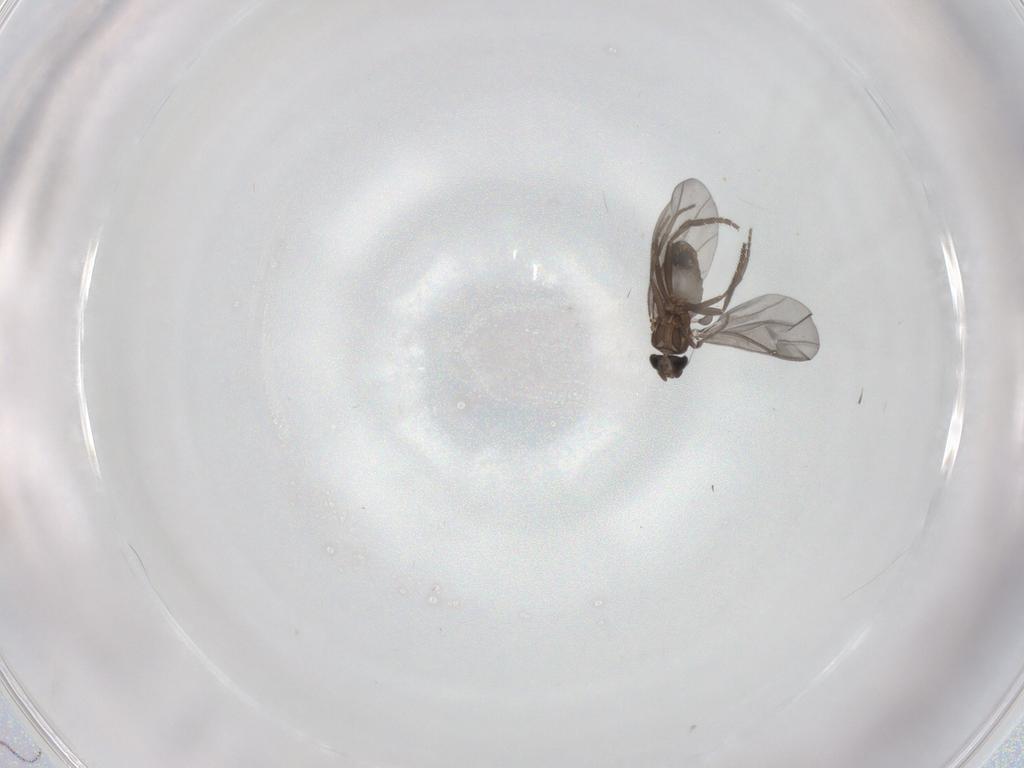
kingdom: Animalia
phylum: Arthropoda
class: Insecta
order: Diptera
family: Phoridae
